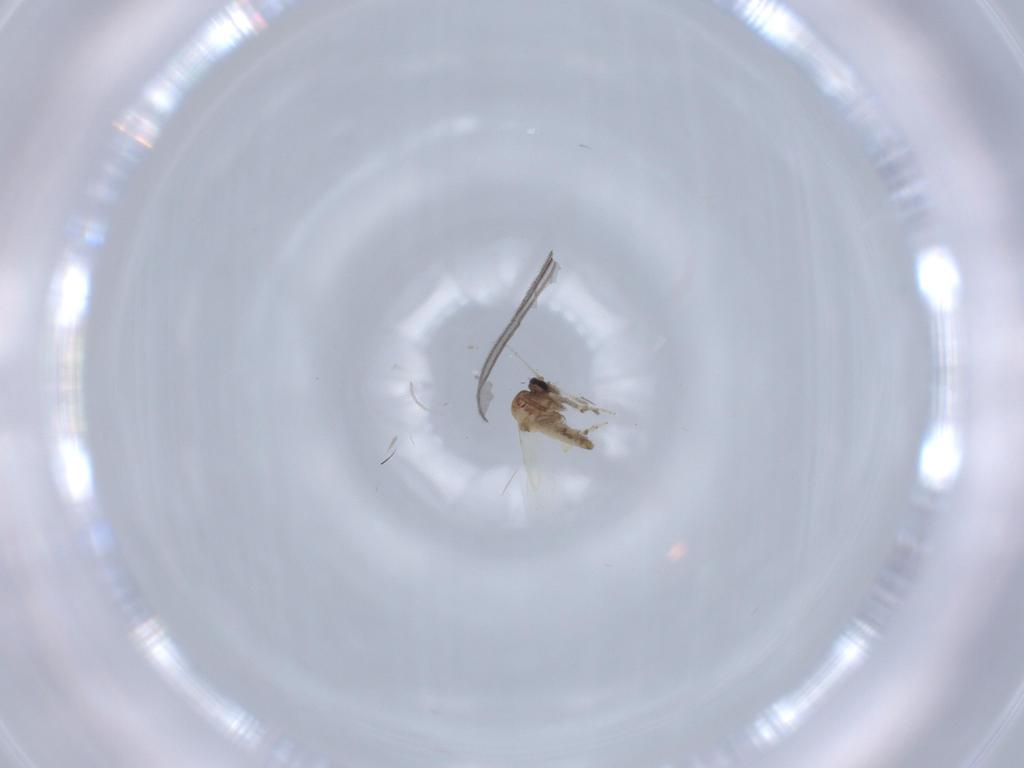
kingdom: Animalia
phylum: Arthropoda
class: Insecta
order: Diptera
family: Ceratopogonidae
